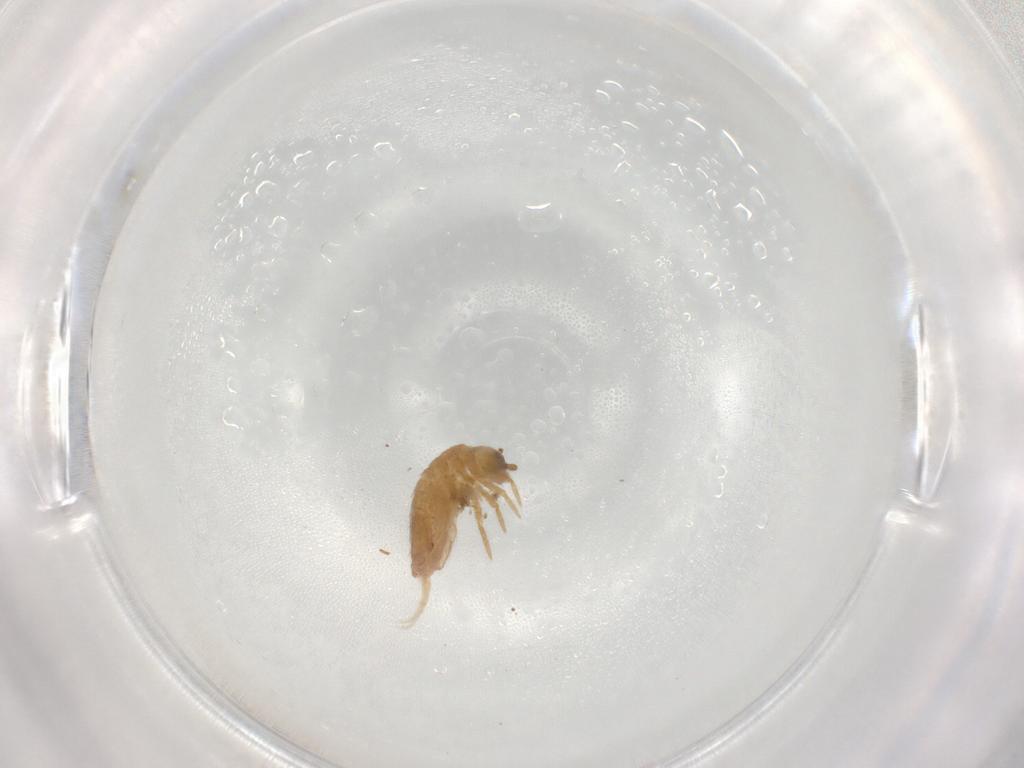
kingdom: Animalia
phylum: Arthropoda
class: Collembola
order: Entomobryomorpha
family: Entomobryidae
